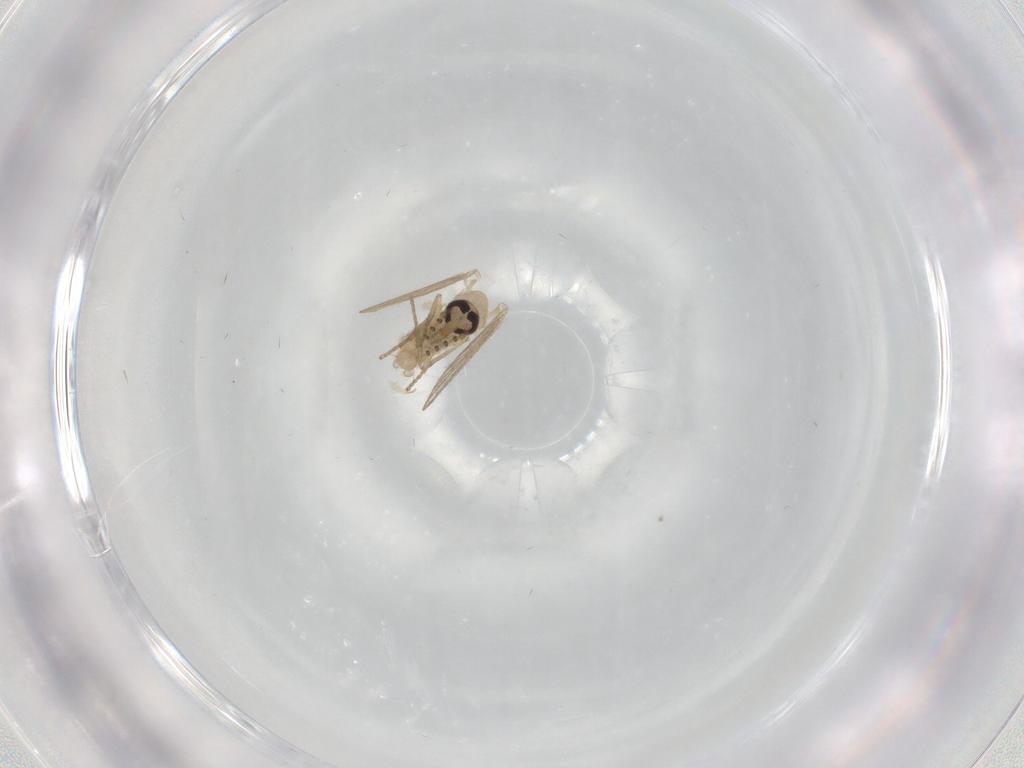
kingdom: Animalia
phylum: Arthropoda
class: Insecta
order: Diptera
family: Psychodidae
